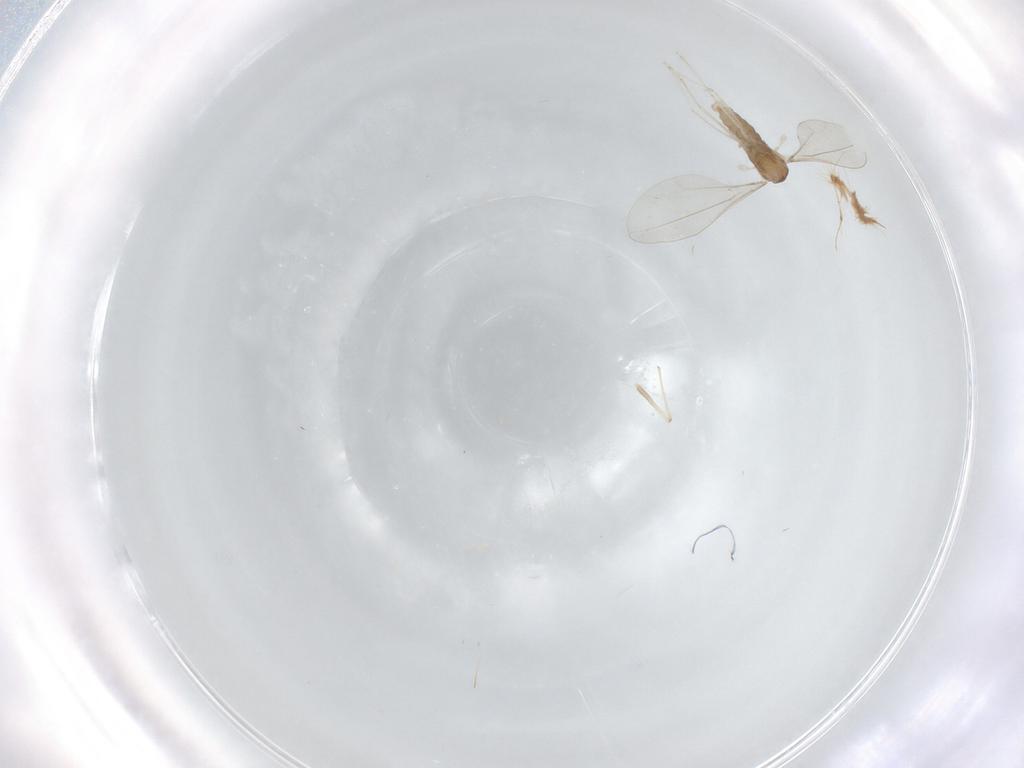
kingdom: Animalia
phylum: Arthropoda
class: Insecta
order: Diptera
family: Cecidomyiidae
